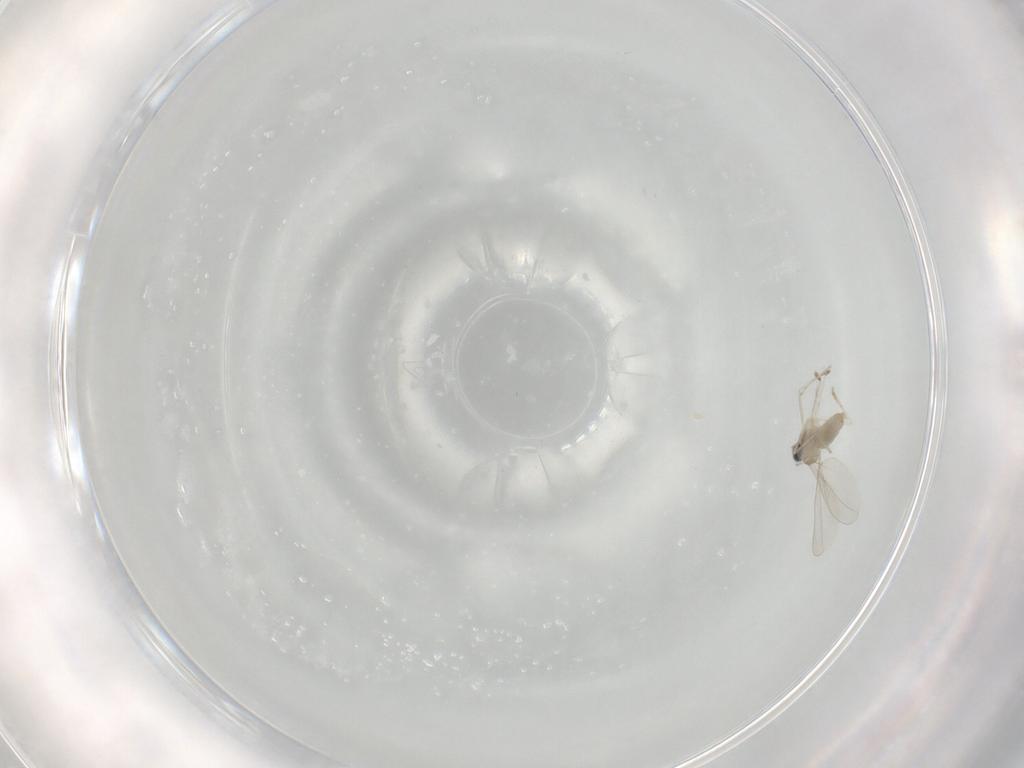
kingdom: Animalia
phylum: Arthropoda
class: Insecta
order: Diptera
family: Cecidomyiidae
